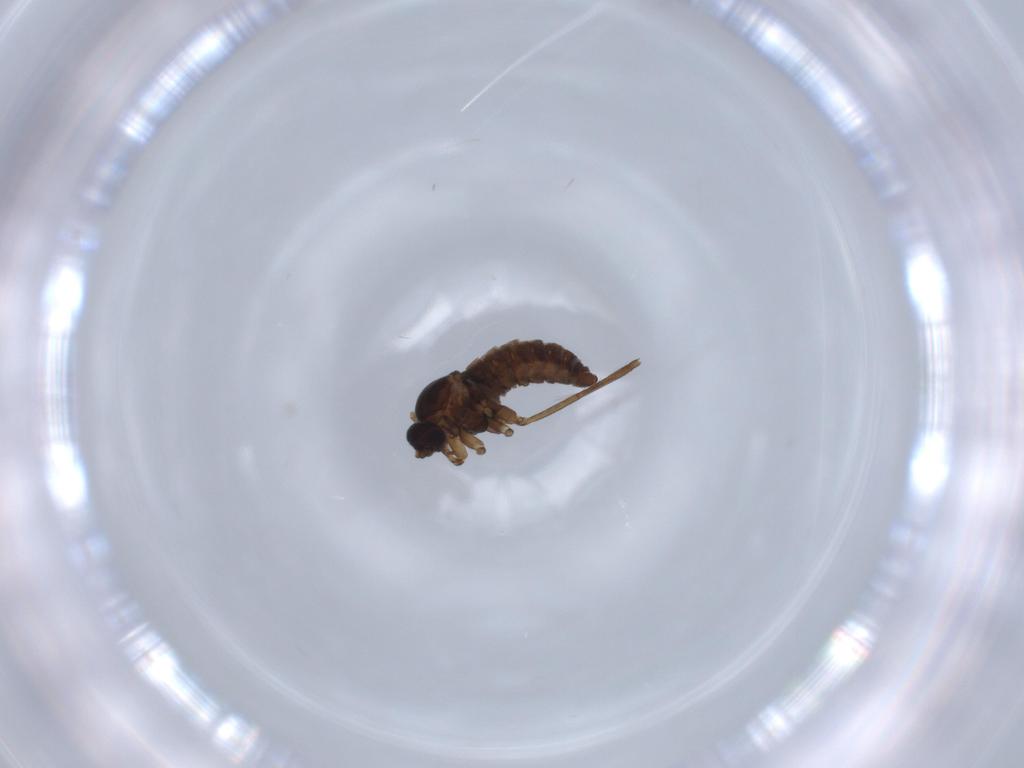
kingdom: Animalia
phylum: Arthropoda
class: Insecta
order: Diptera
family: Cecidomyiidae
